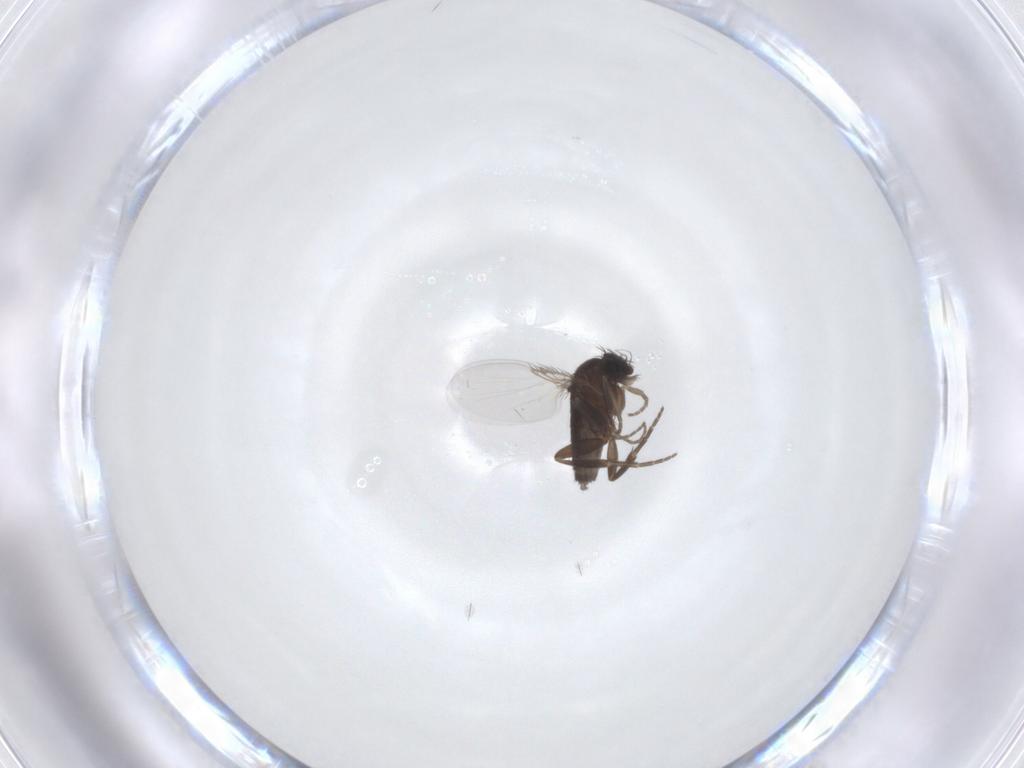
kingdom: Animalia
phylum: Arthropoda
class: Insecta
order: Diptera
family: Phoridae
